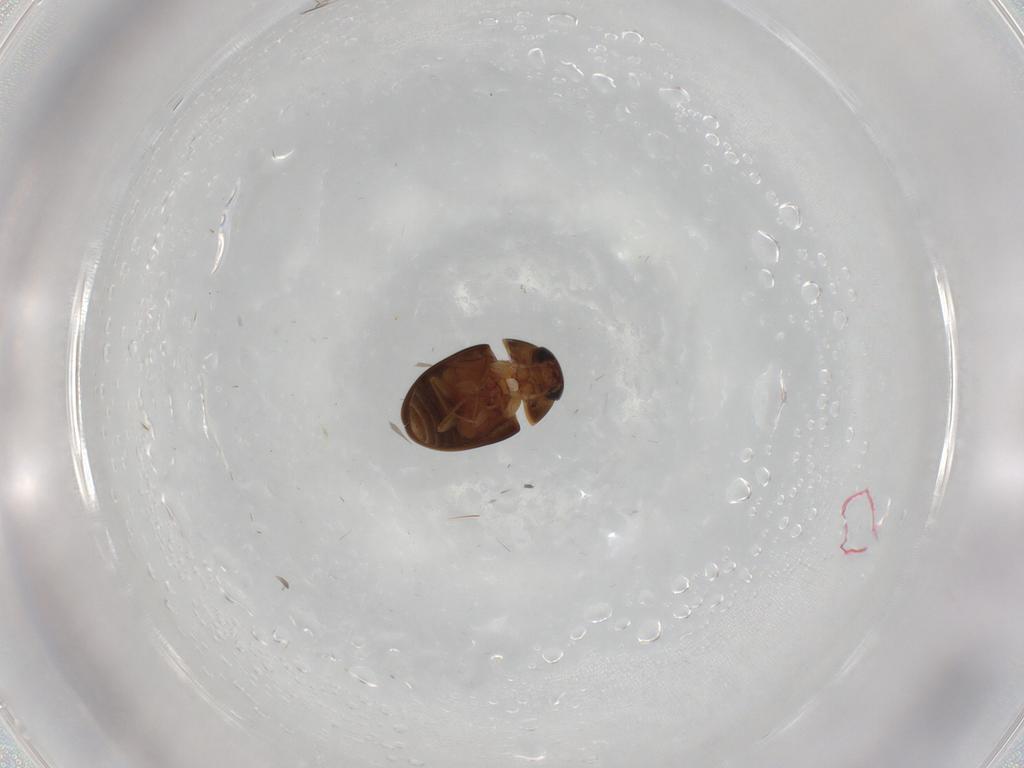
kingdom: Animalia
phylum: Arthropoda
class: Insecta
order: Coleoptera
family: Phalacridae
